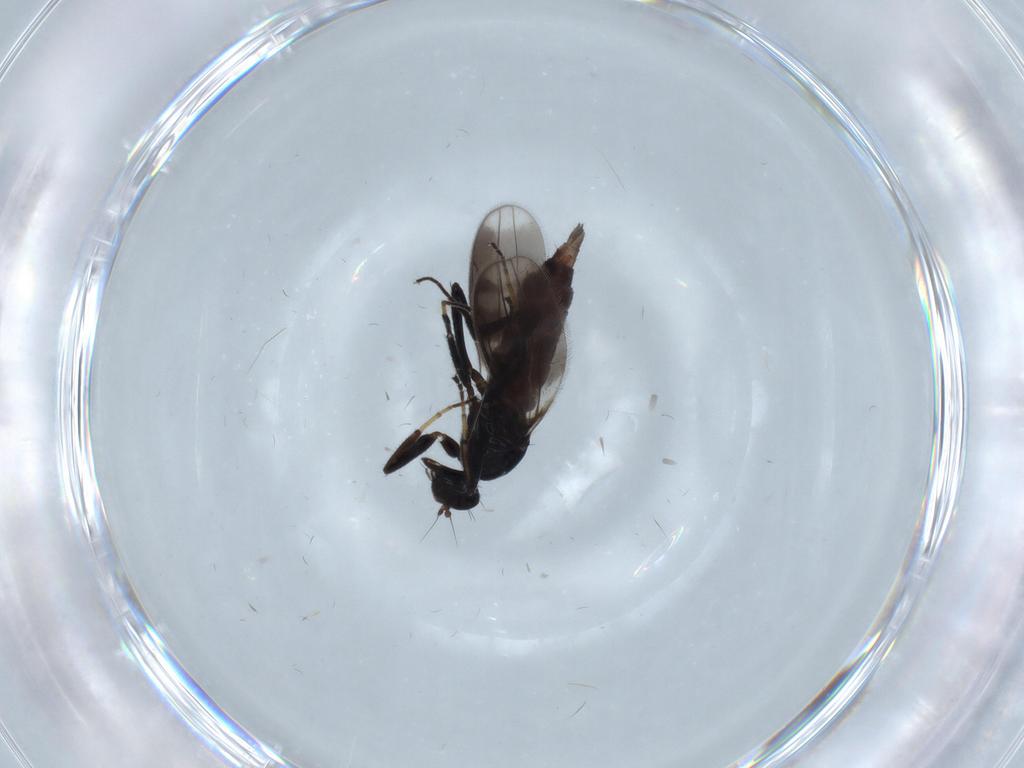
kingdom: Animalia
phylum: Arthropoda
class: Insecta
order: Diptera
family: Hybotidae
